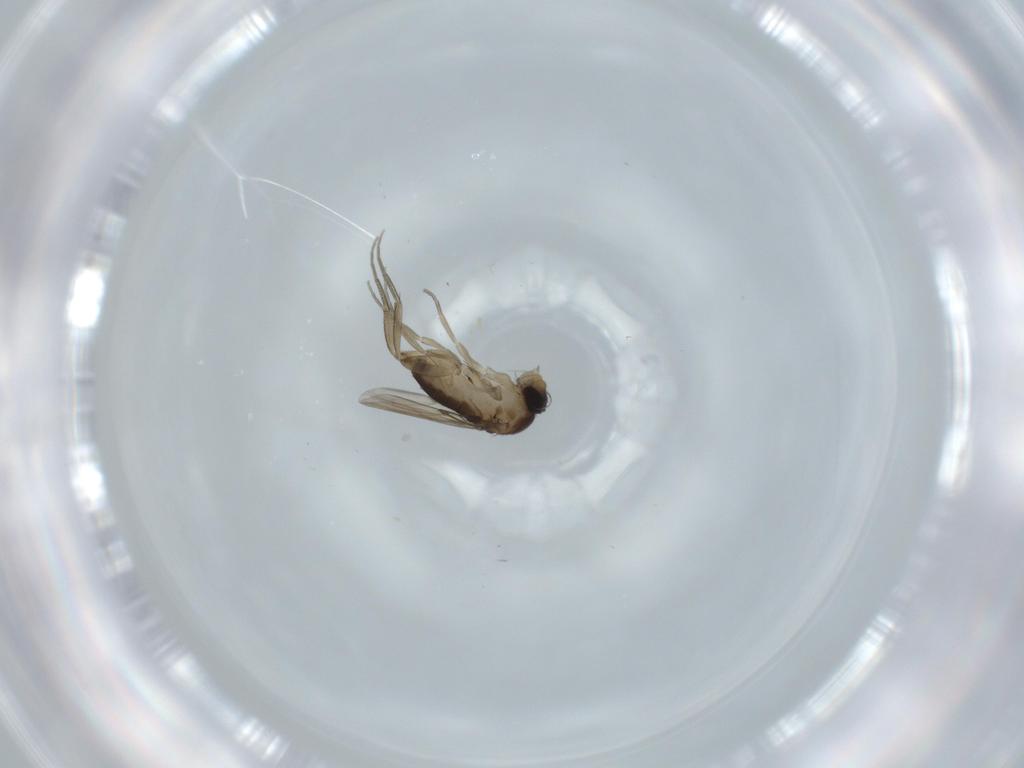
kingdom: Animalia
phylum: Arthropoda
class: Insecta
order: Diptera
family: Phoridae
